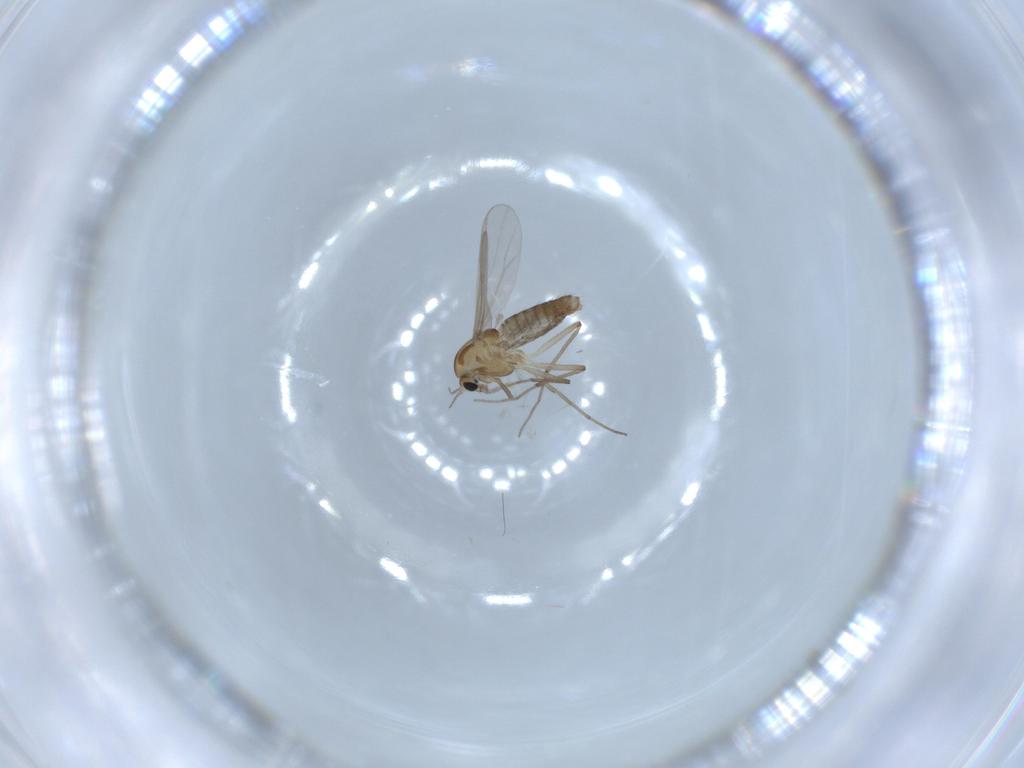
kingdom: Animalia
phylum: Arthropoda
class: Insecta
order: Diptera
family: Chironomidae
